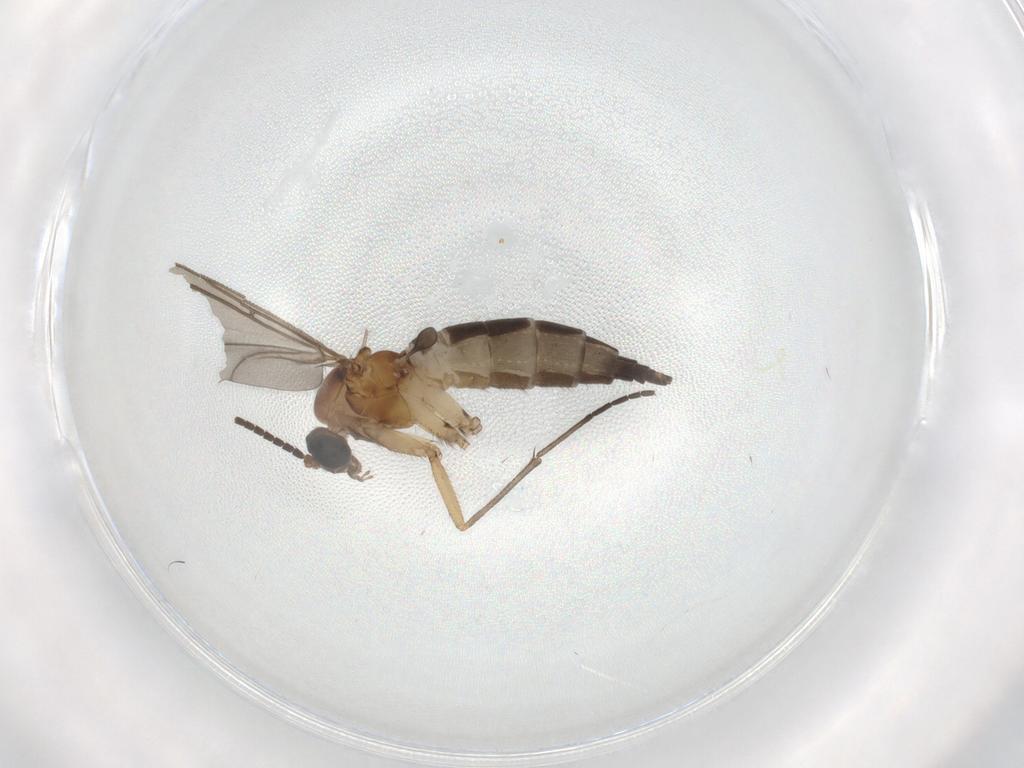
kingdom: Animalia
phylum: Arthropoda
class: Insecta
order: Diptera
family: Sciaridae
